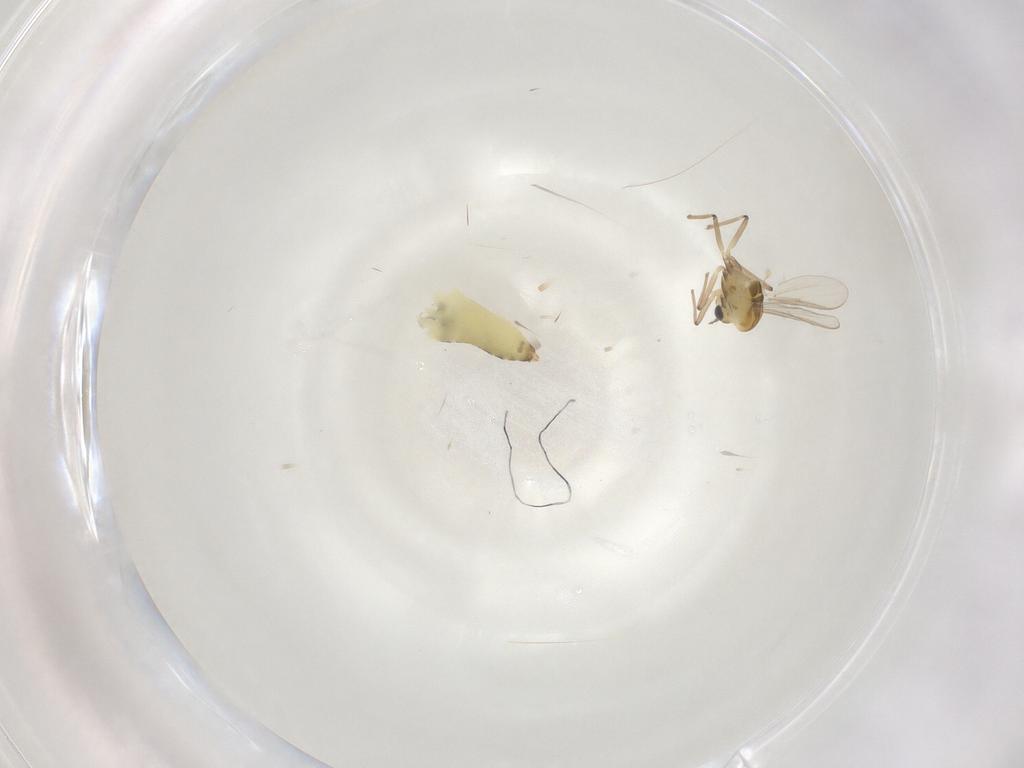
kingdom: Animalia
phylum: Arthropoda
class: Insecta
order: Diptera
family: Chironomidae
